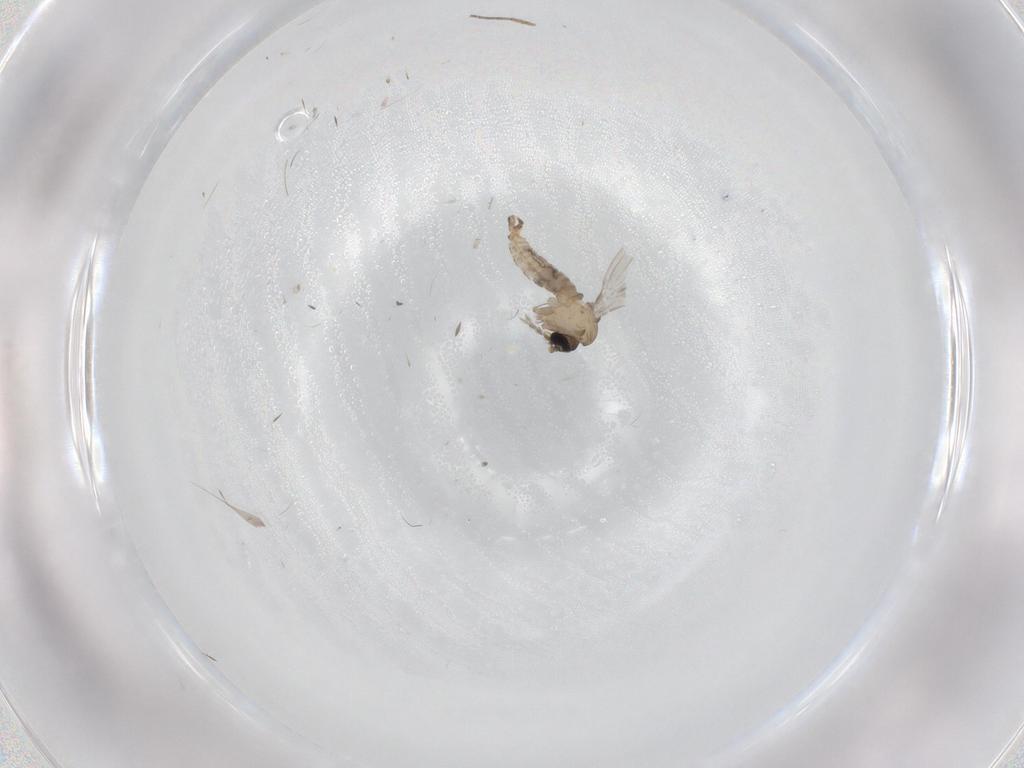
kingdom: Animalia
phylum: Arthropoda
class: Insecta
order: Diptera
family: Psychodidae
